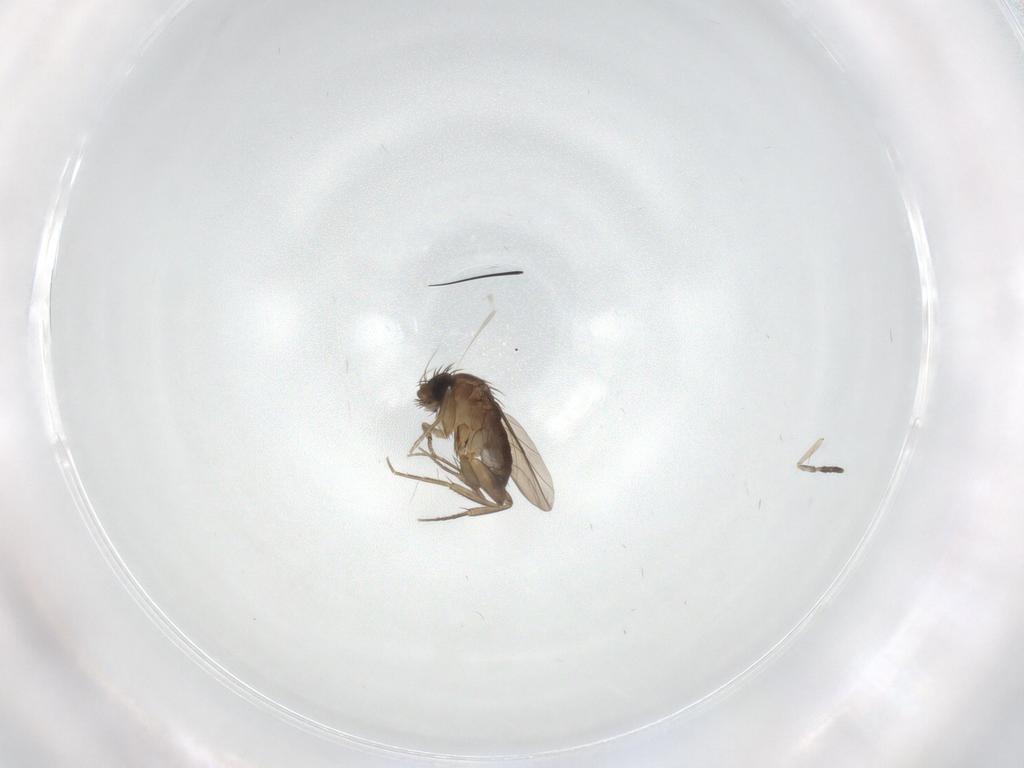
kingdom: Animalia
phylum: Arthropoda
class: Insecta
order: Diptera
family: Phoridae
